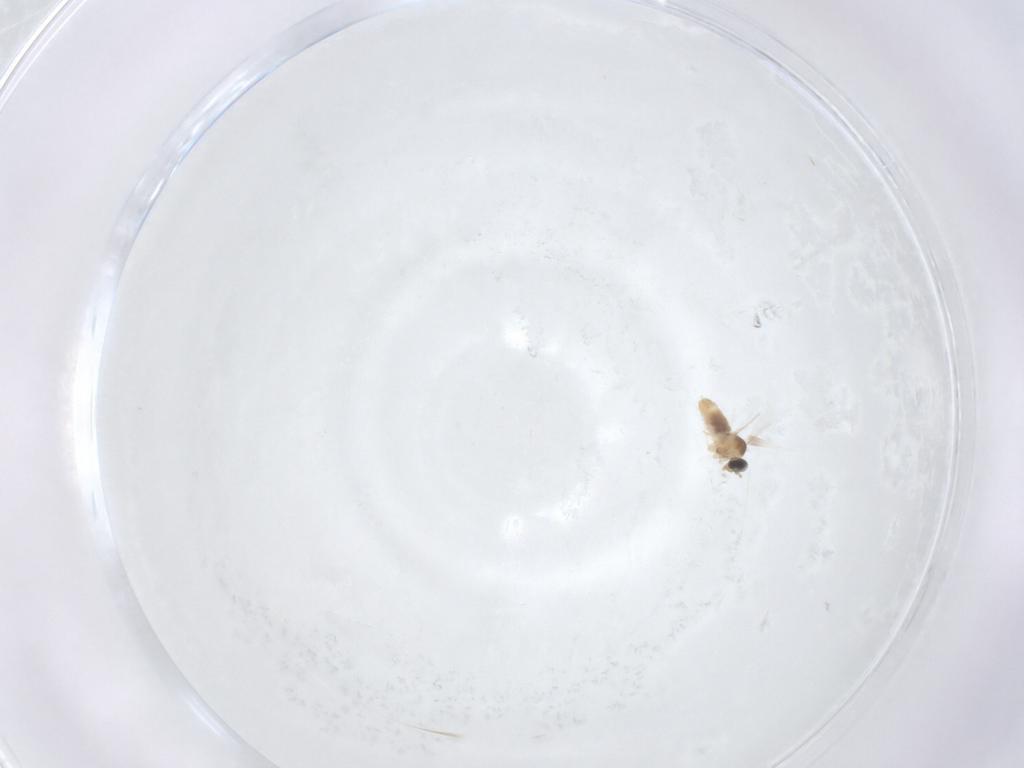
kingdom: Animalia
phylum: Arthropoda
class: Insecta
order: Diptera
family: Cecidomyiidae
